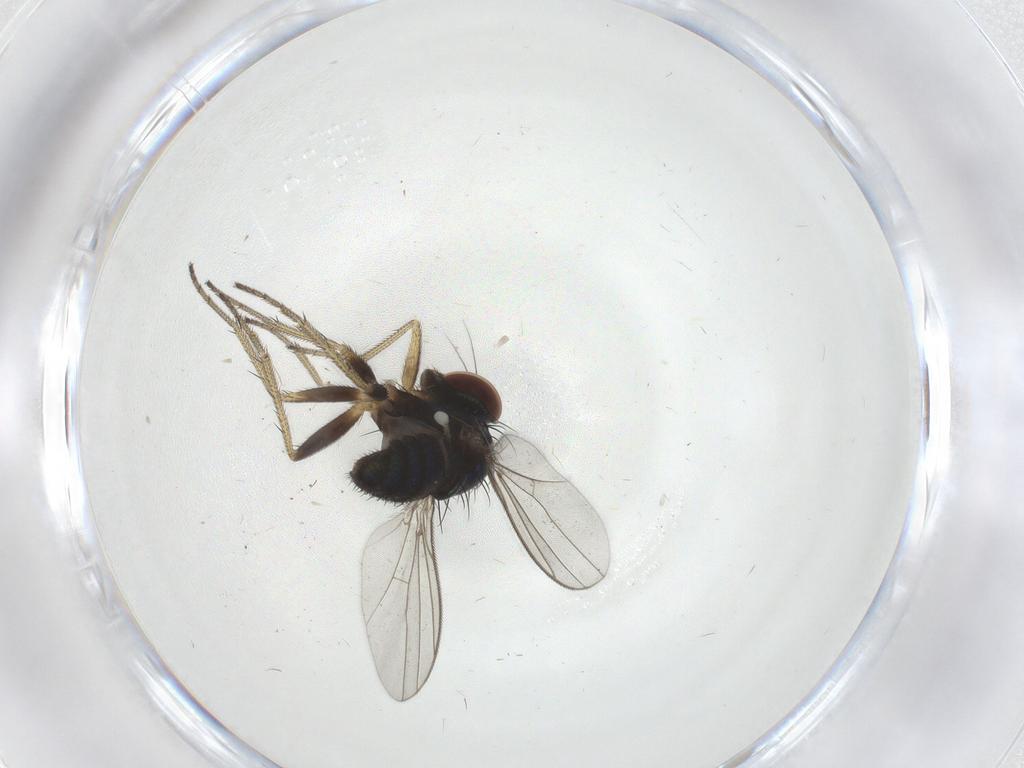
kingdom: Animalia
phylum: Arthropoda
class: Insecta
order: Diptera
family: Dolichopodidae
